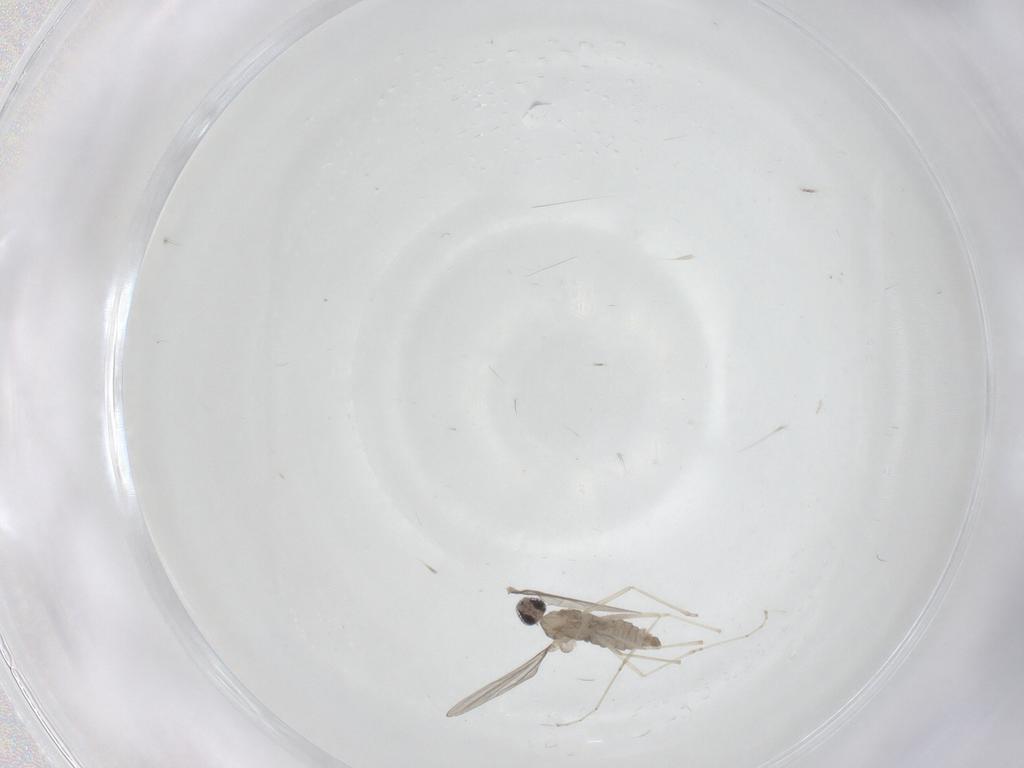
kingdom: Animalia
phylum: Arthropoda
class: Insecta
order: Diptera
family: Cecidomyiidae
